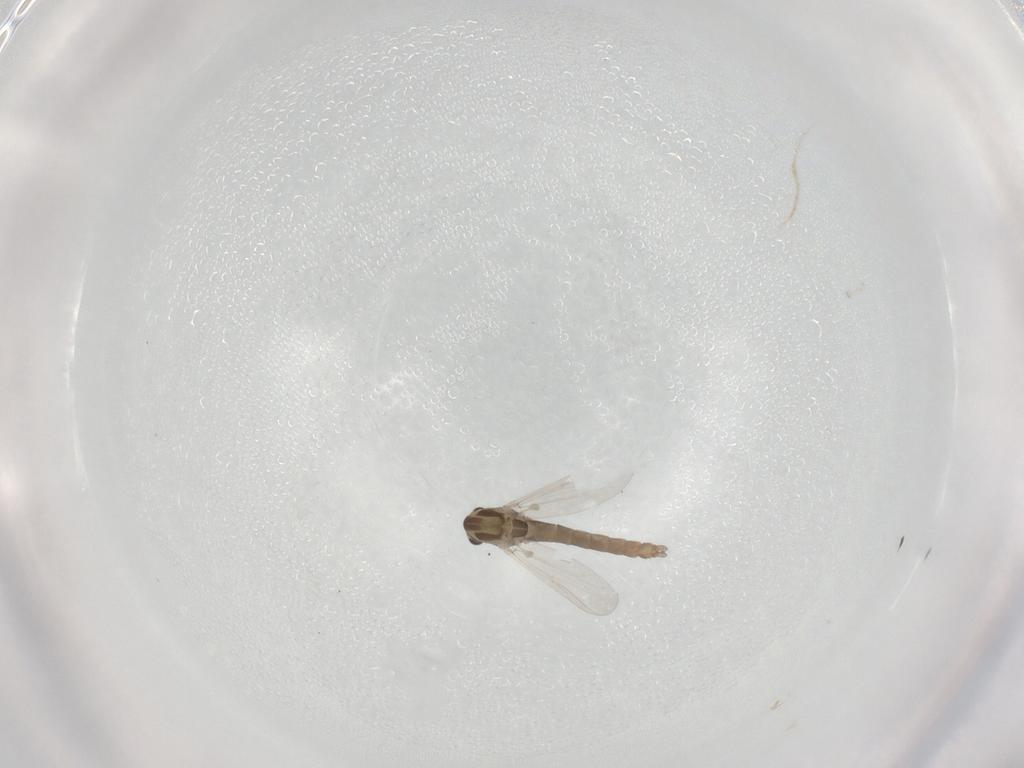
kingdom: Animalia
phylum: Arthropoda
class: Insecta
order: Diptera
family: Chironomidae
